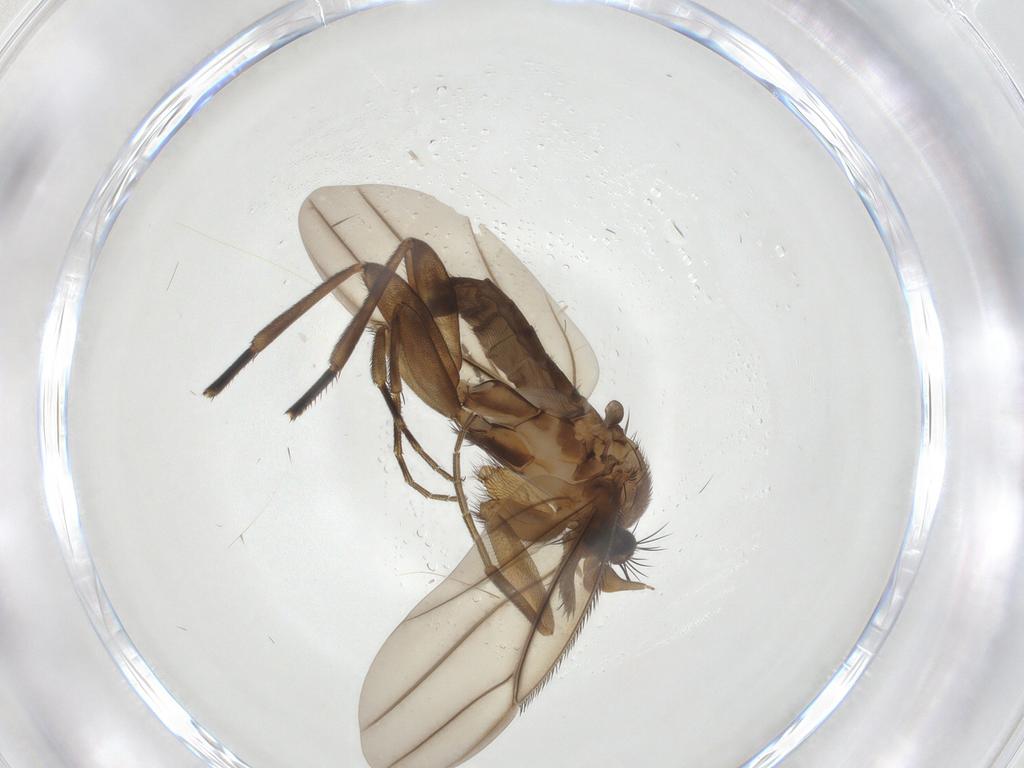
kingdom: Animalia
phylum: Arthropoda
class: Insecta
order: Diptera
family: Phoridae
